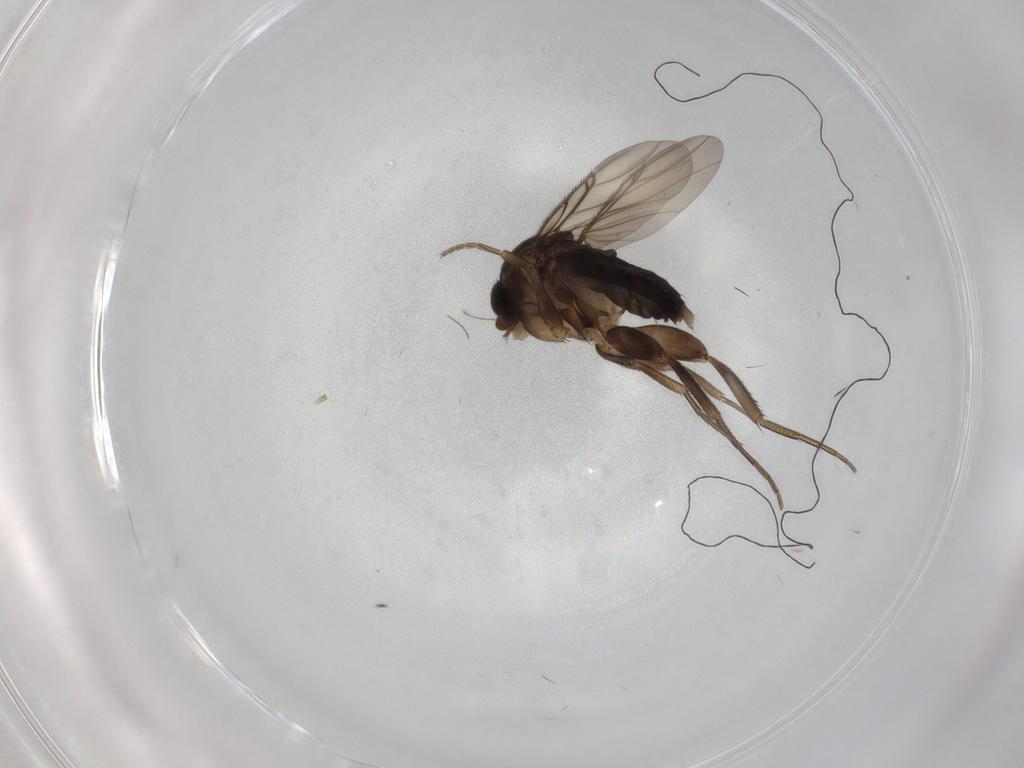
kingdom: Animalia
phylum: Arthropoda
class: Insecta
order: Diptera
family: Phoridae
